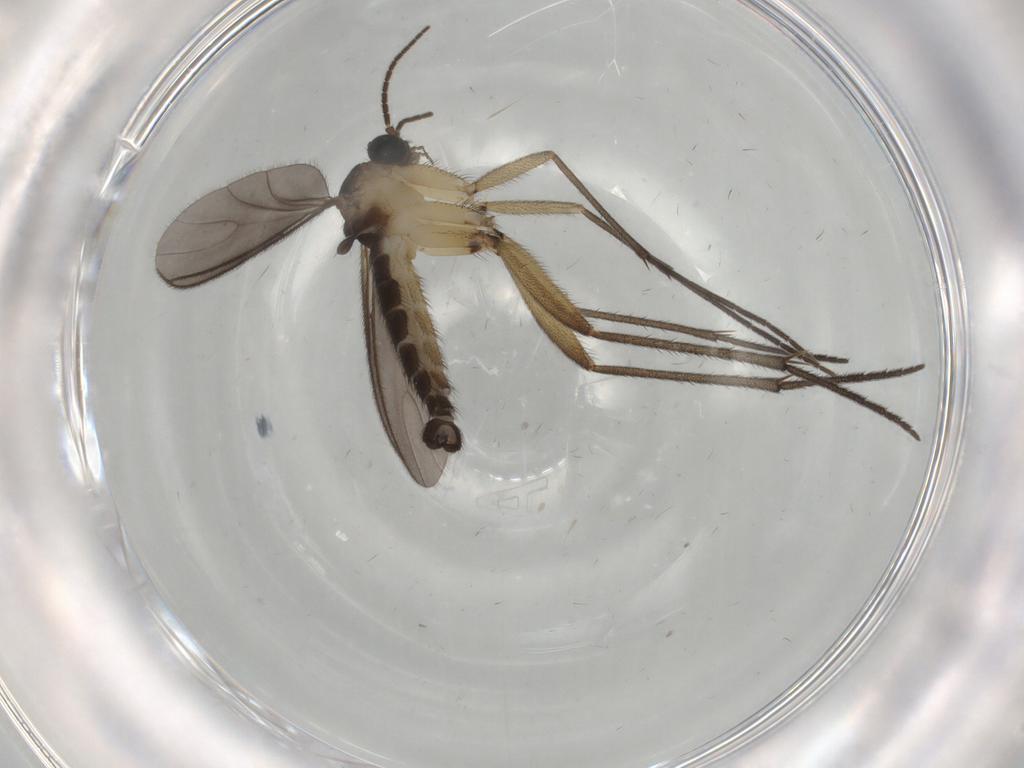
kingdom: Animalia
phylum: Arthropoda
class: Insecta
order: Diptera
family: Sciaridae
